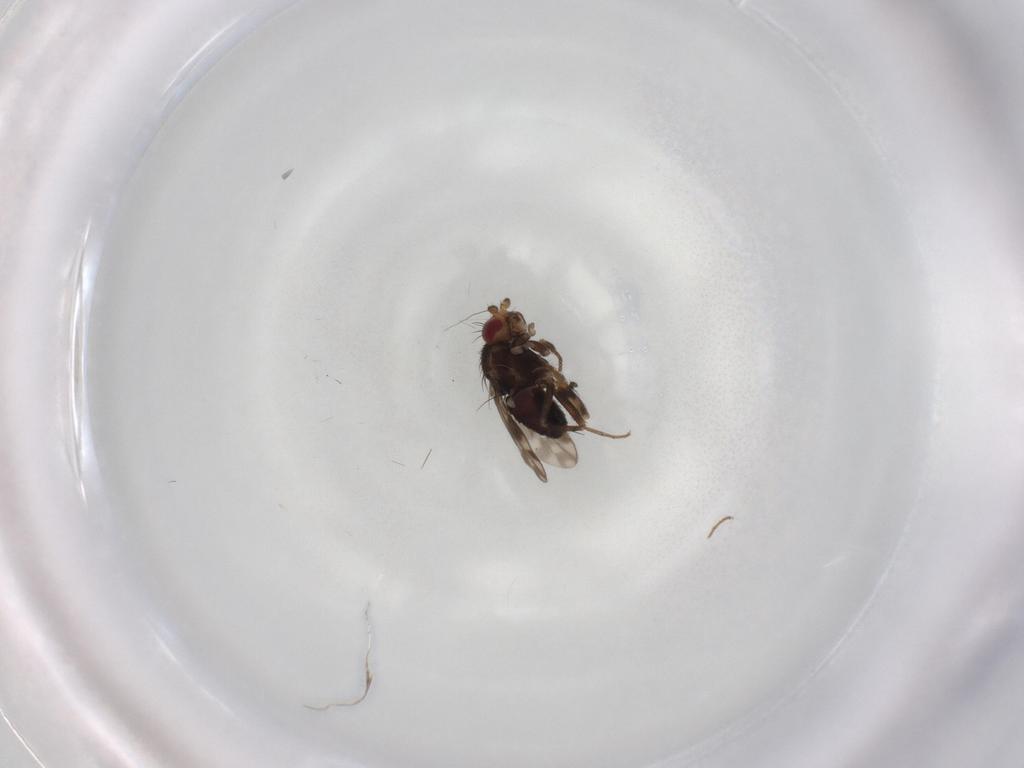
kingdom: Animalia
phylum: Arthropoda
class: Insecta
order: Diptera
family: Sphaeroceridae
